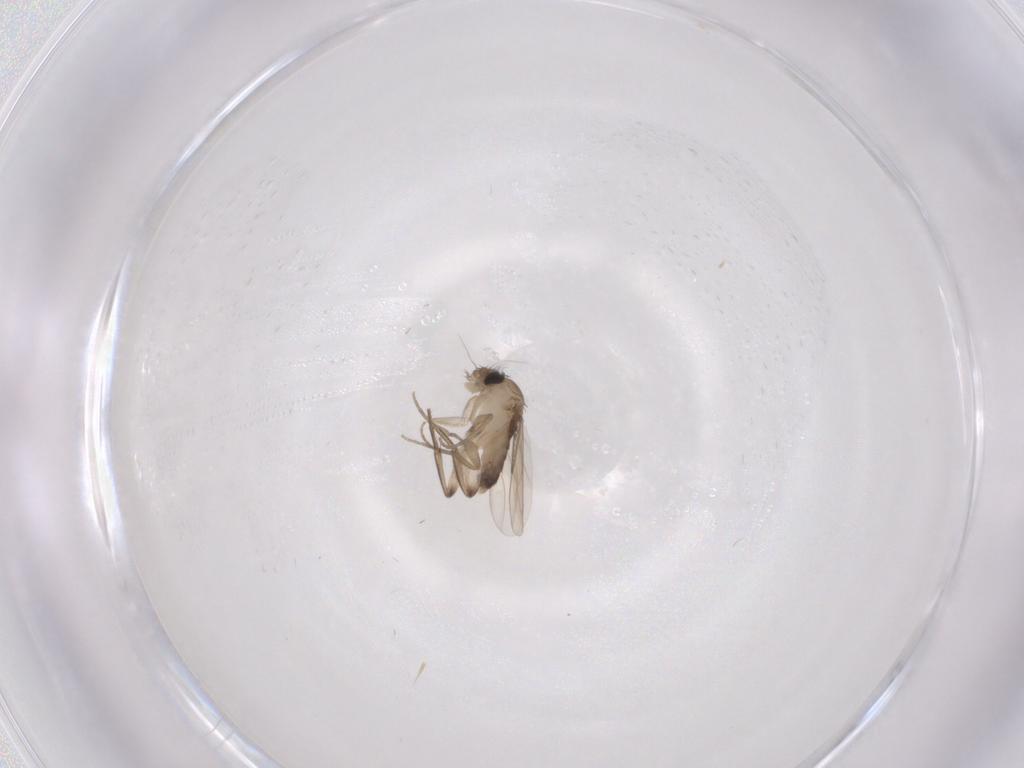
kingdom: Animalia
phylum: Arthropoda
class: Insecta
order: Diptera
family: Phoridae
